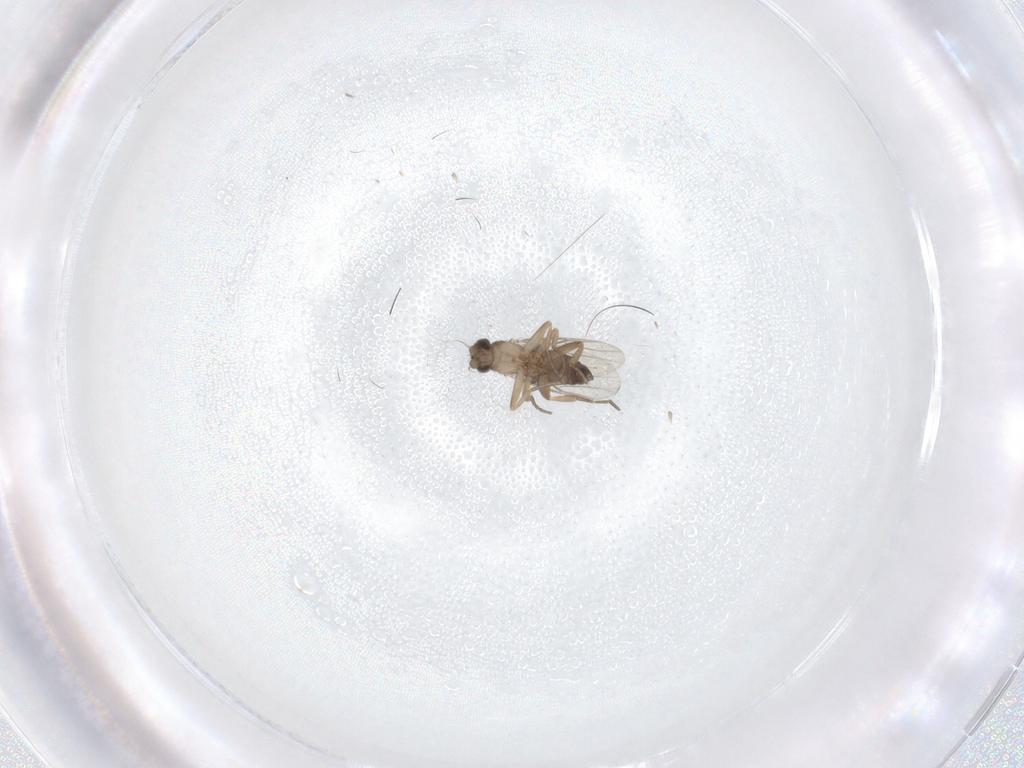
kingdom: Animalia
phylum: Arthropoda
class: Insecta
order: Diptera
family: Phoridae
